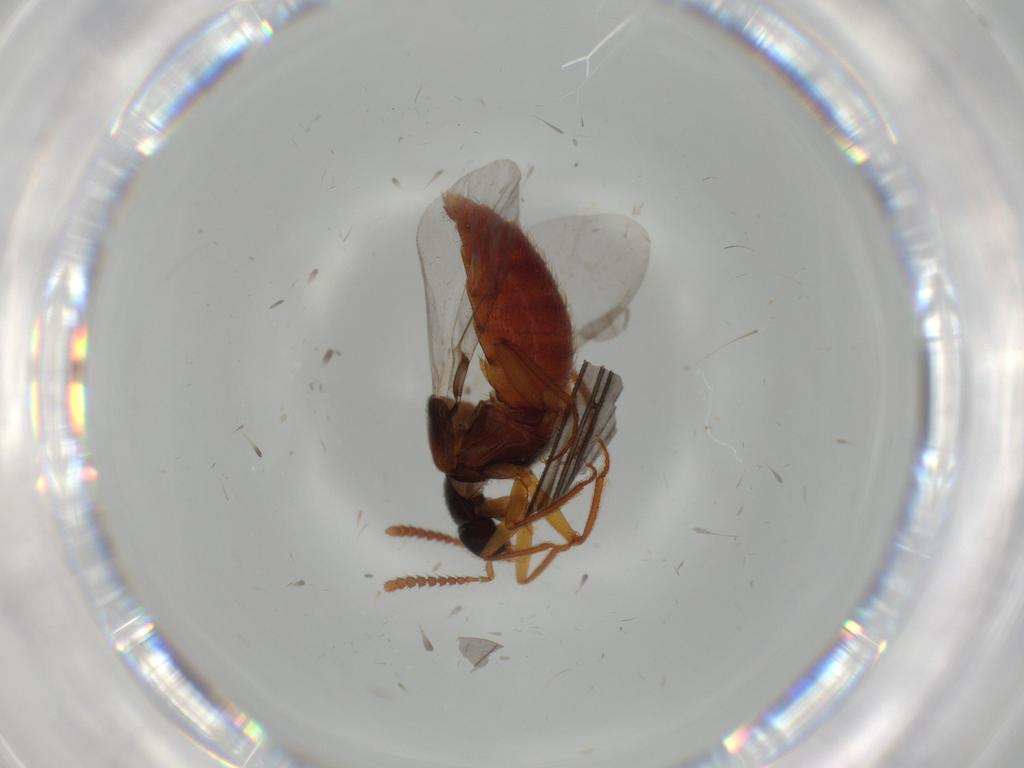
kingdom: Animalia
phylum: Arthropoda
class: Insecta
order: Coleoptera
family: Staphylinidae
